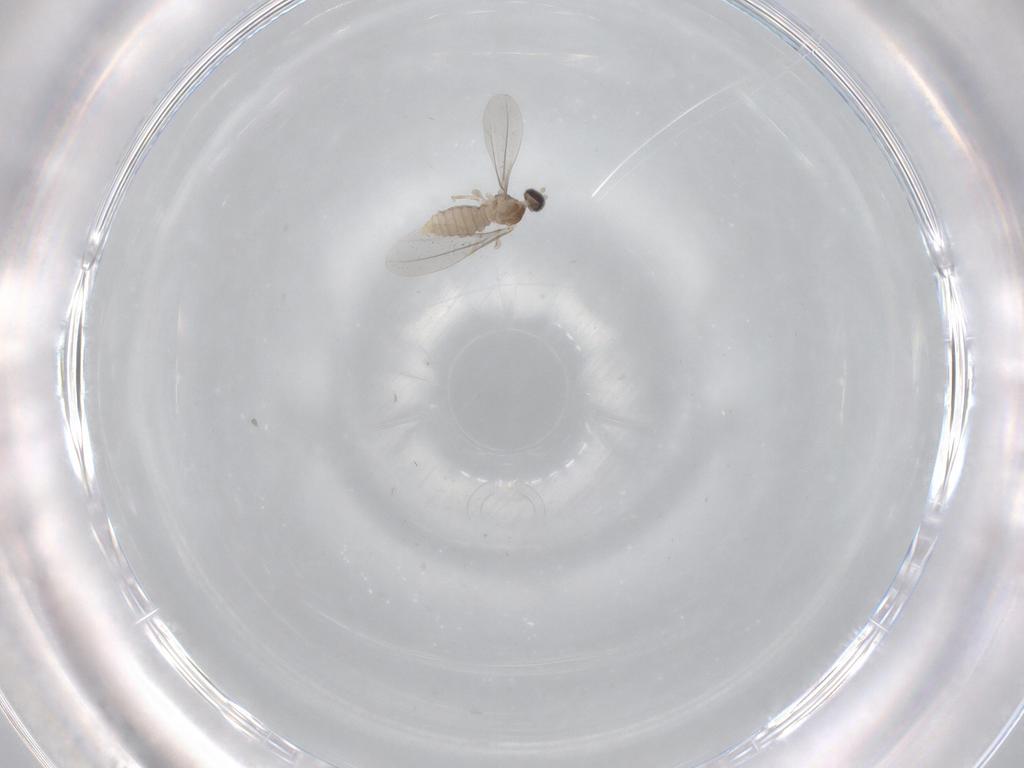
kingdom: Animalia
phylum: Arthropoda
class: Insecta
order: Diptera
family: Cecidomyiidae
